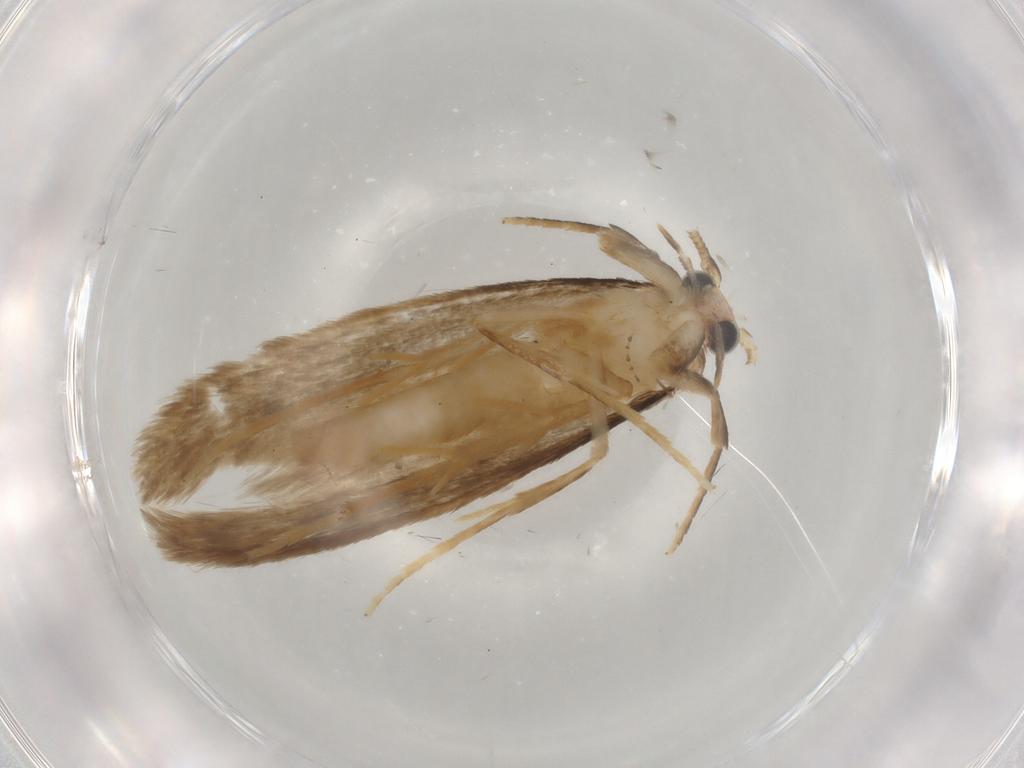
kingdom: Animalia
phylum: Arthropoda
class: Insecta
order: Lepidoptera
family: Tineidae
